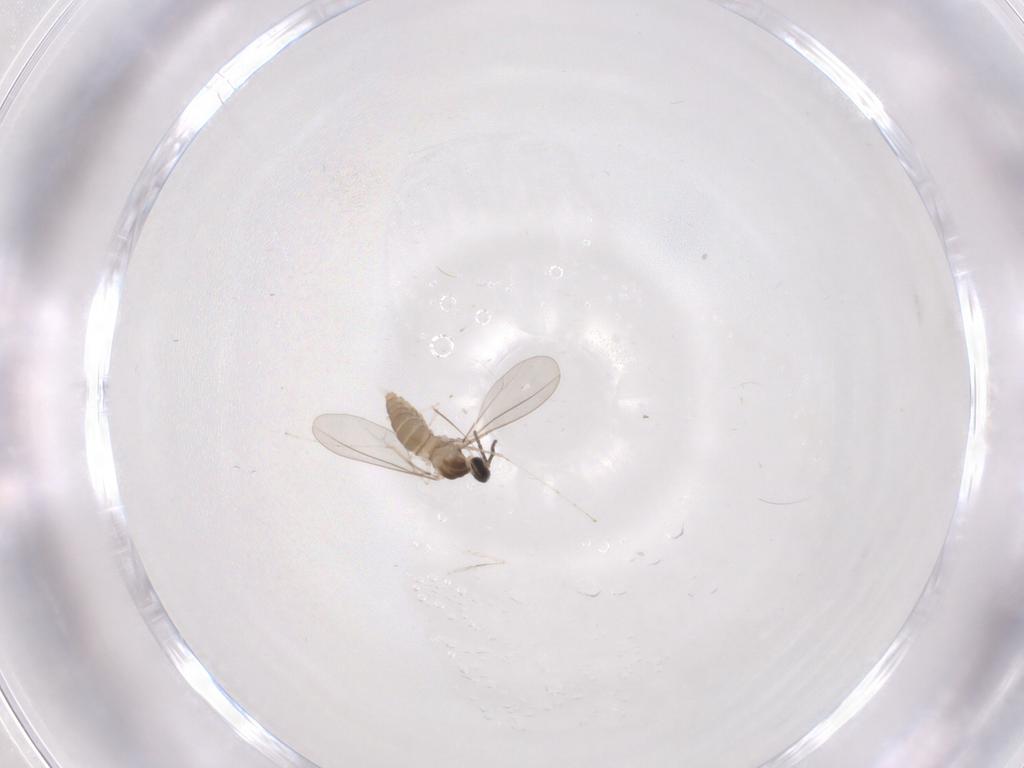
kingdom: Animalia
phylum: Arthropoda
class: Insecta
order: Diptera
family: Cecidomyiidae
